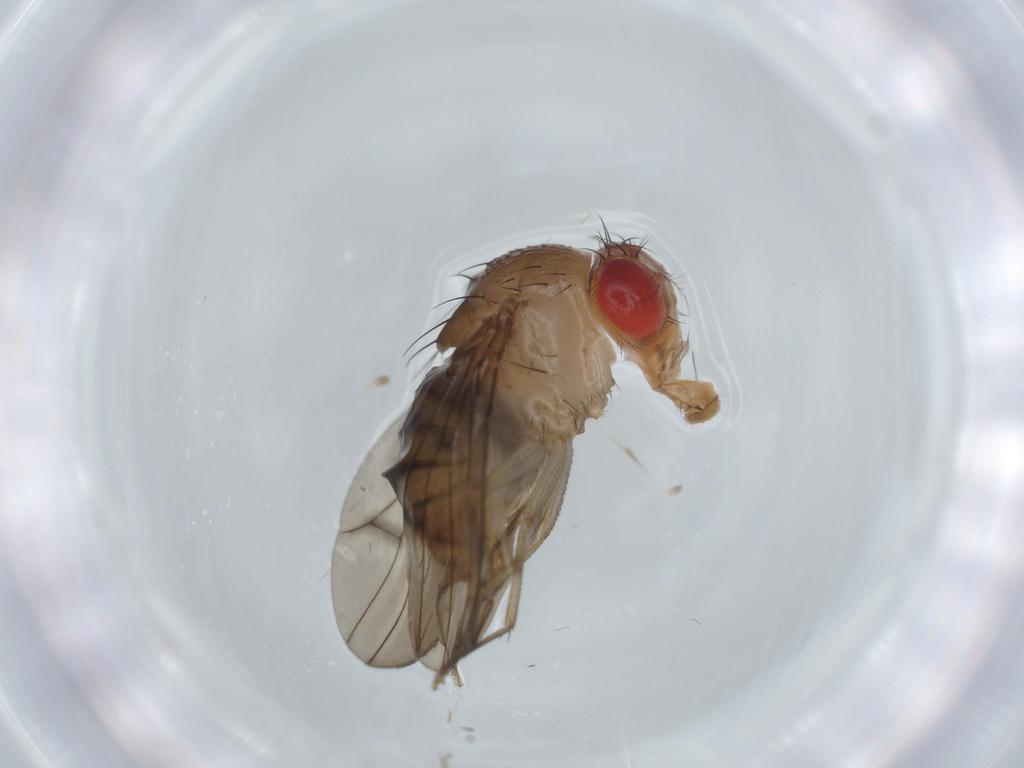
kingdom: Animalia
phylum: Arthropoda
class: Insecta
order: Diptera
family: Drosophilidae
